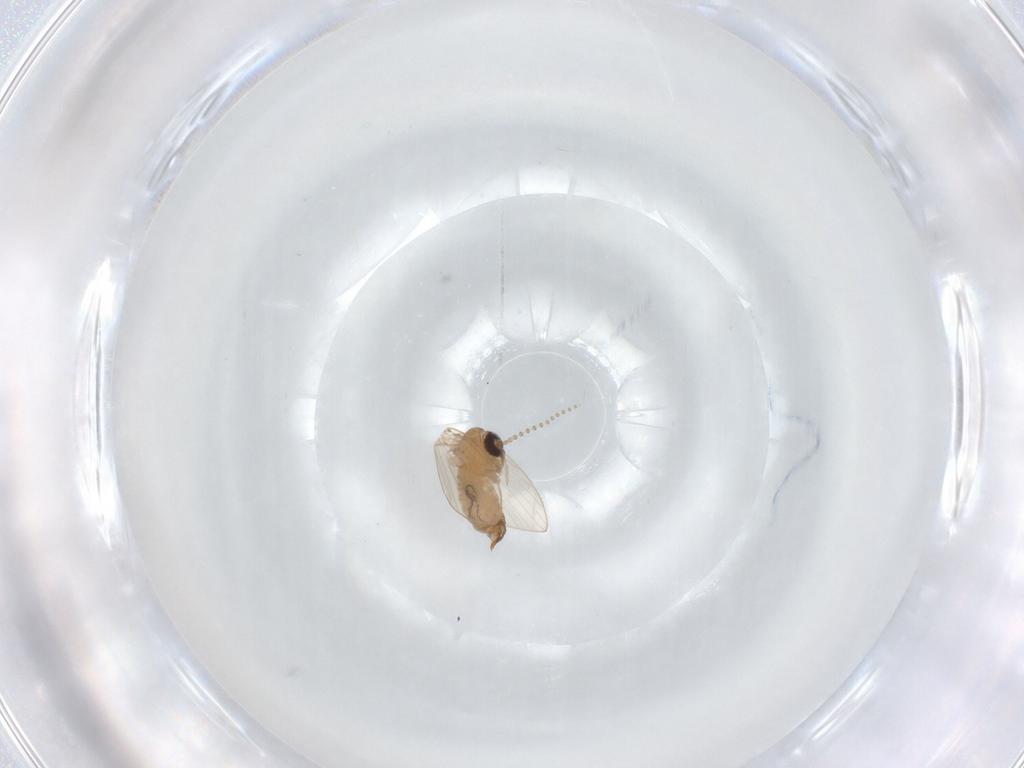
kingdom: Animalia
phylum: Arthropoda
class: Insecta
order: Diptera
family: Psychodidae
